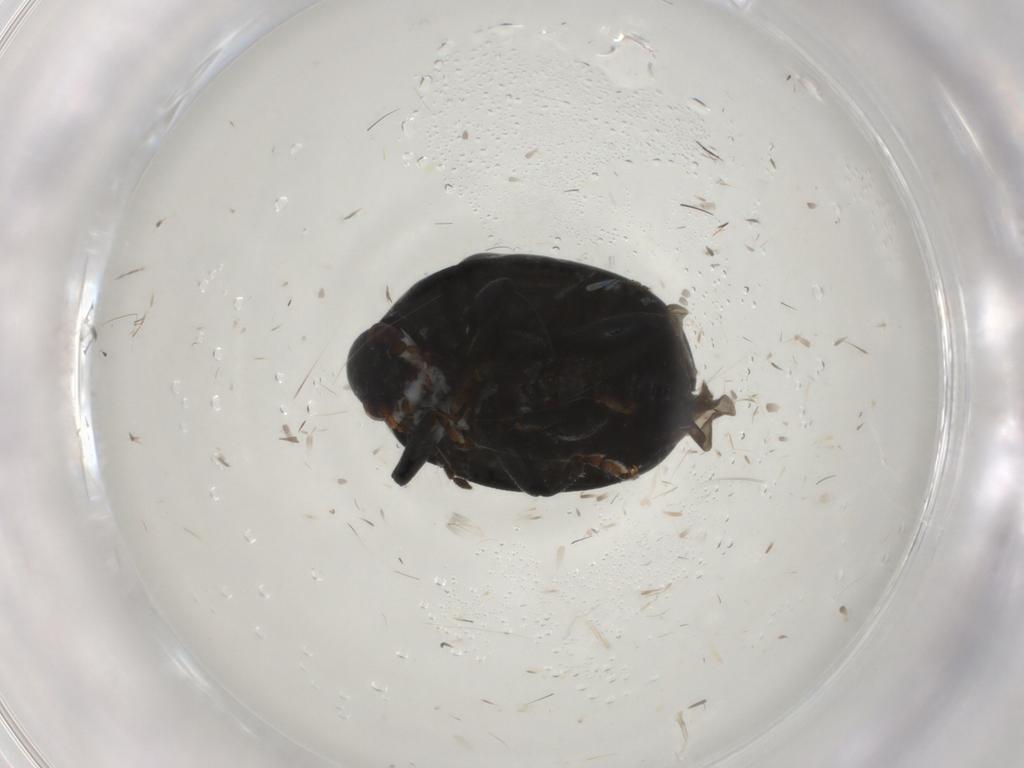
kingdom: Animalia
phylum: Arthropoda
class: Insecta
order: Coleoptera
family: Chrysomelidae
